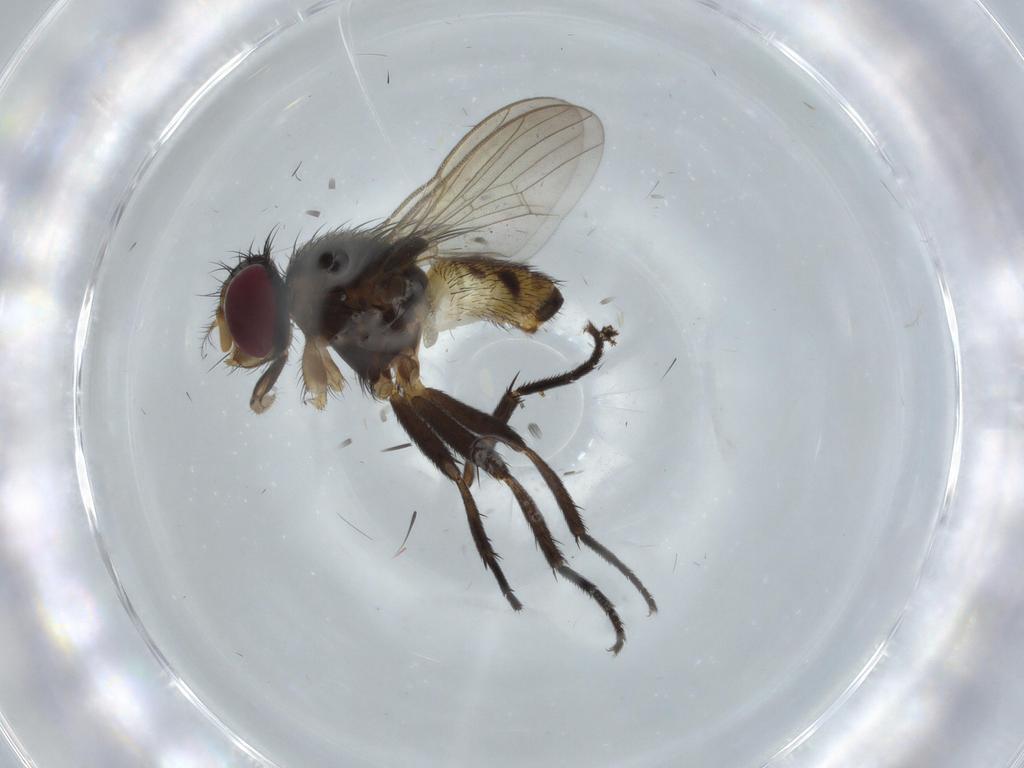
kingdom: Animalia
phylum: Arthropoda
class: Insecta
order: Diptera
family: Anthomyiidae
